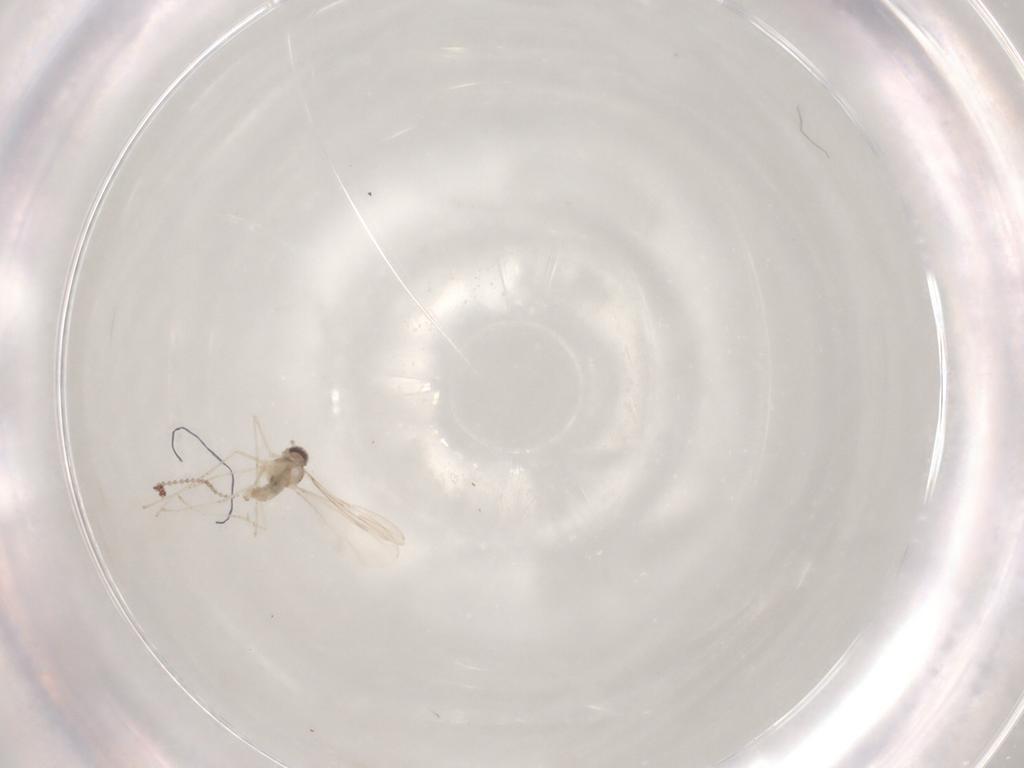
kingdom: Animalia
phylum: Arthropoda
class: Insecta
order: Diptera
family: Cecidomyiidae
